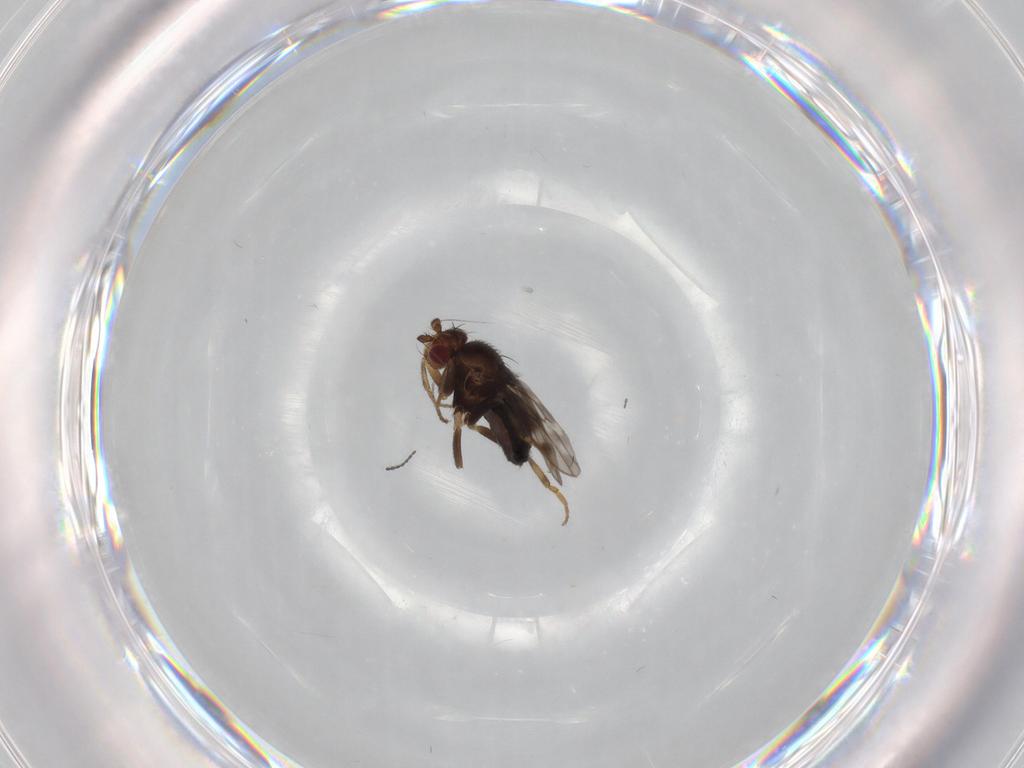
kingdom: Animalia
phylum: Arthropoda
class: Insecta
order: Diptera
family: Sphaeroceridae
